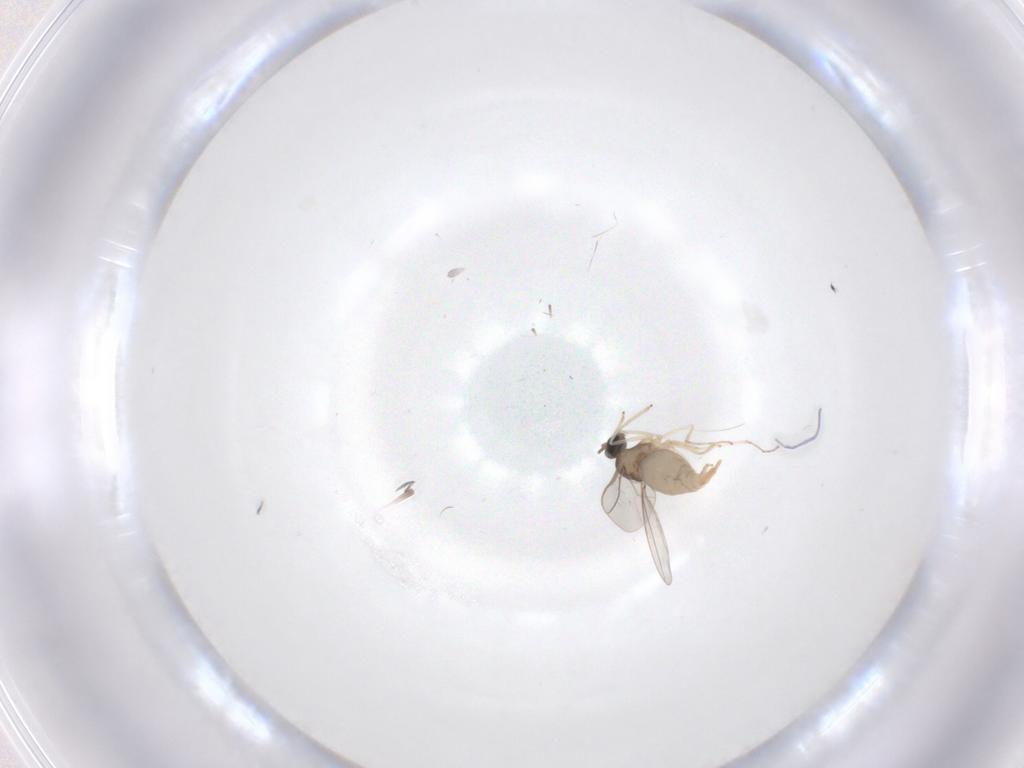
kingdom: Animalia
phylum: Arthropoda
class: Insecta
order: Diptera
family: Cecidomyiidae
